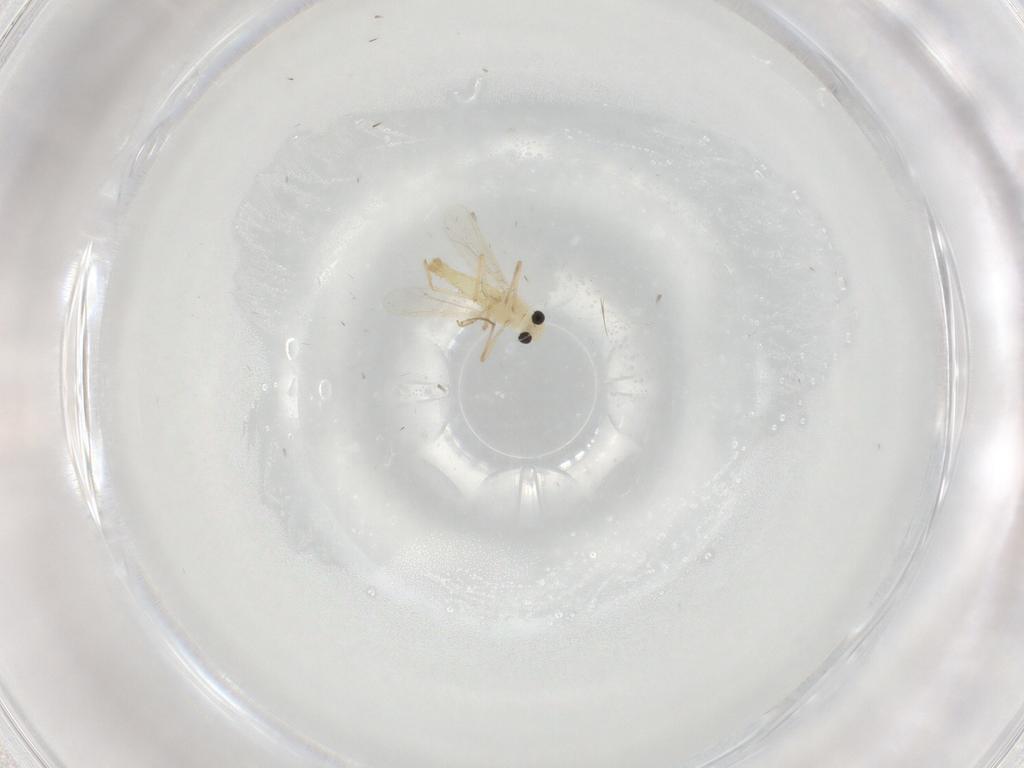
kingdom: Animalia
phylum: Arthropoda
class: Insecta
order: Diptera
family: Chironomidae
